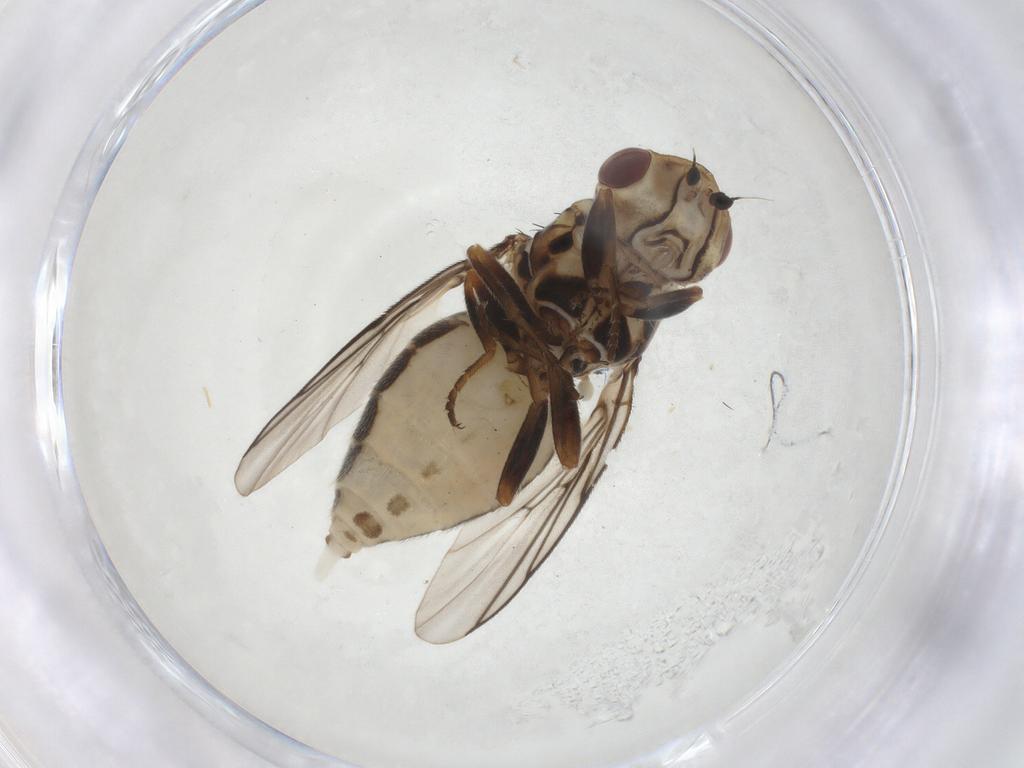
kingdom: Animalia
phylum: Arthropoda
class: Insecta
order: Diptera
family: Chloropidae
